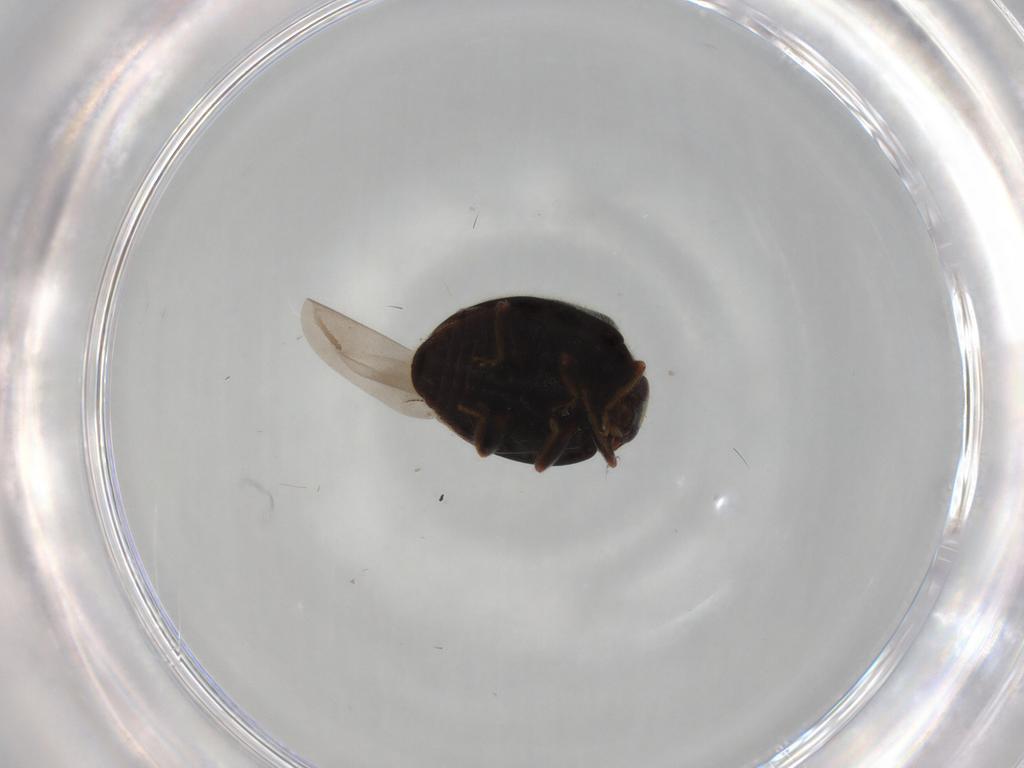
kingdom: Animalia
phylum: Arthropoda
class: Insecta
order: Coleoptera
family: Coccinellidae
